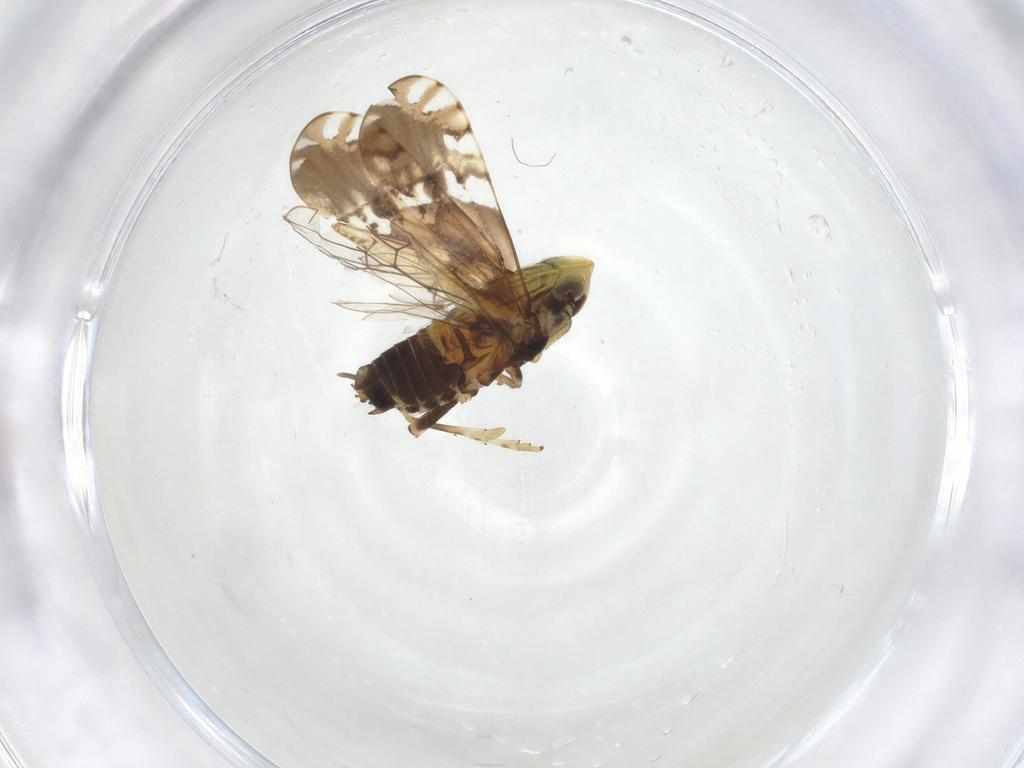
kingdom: Animalia
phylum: Arthropoda
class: Insecta
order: Hemiptera
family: Delphacidae
